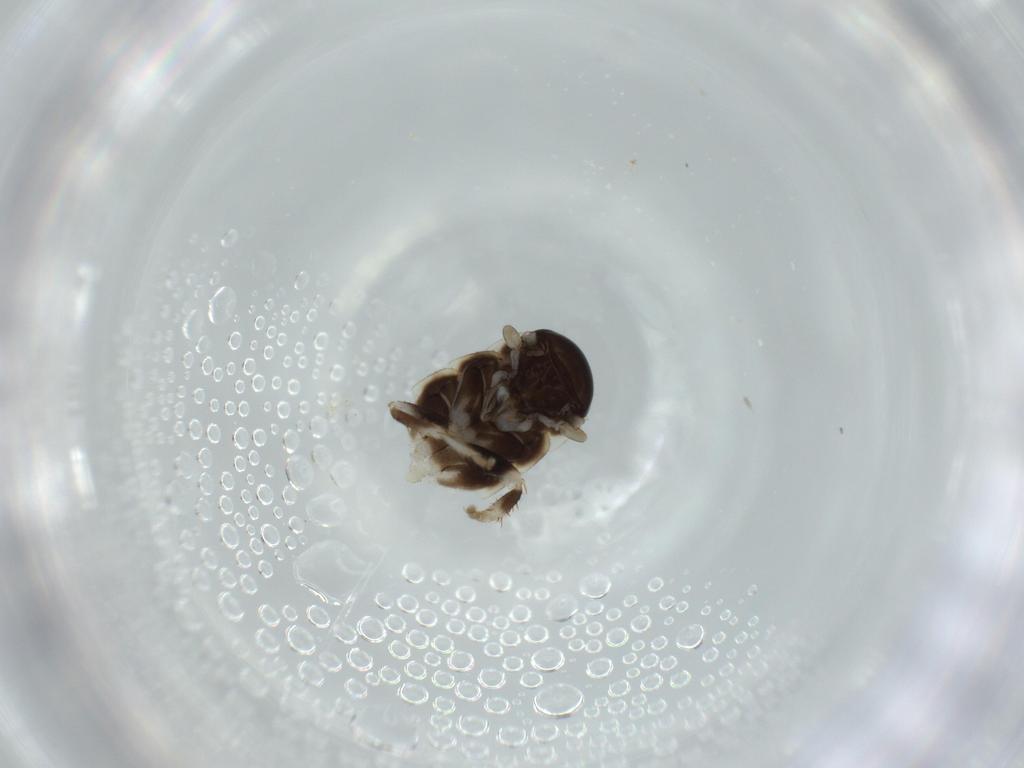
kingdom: Animalia
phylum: Arthropoda
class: Insecta
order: Blattodea
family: Ectobiidae
